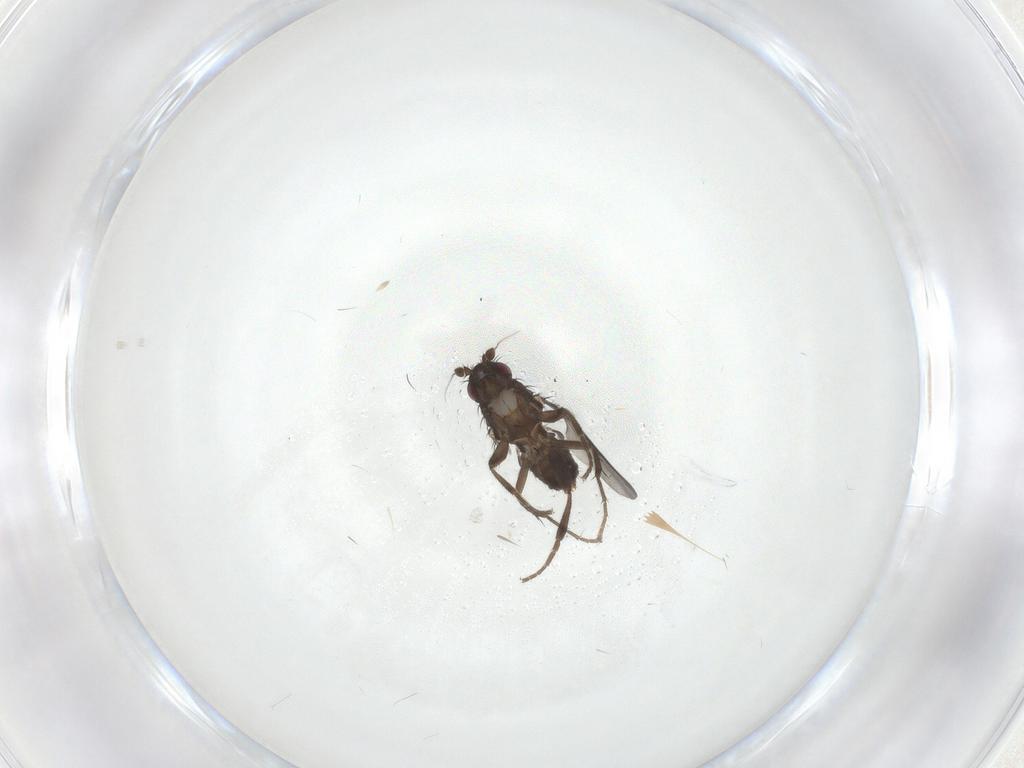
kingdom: Animalia
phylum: Arthropoda
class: Insecta
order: Diptera
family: Sphaeroceridae
